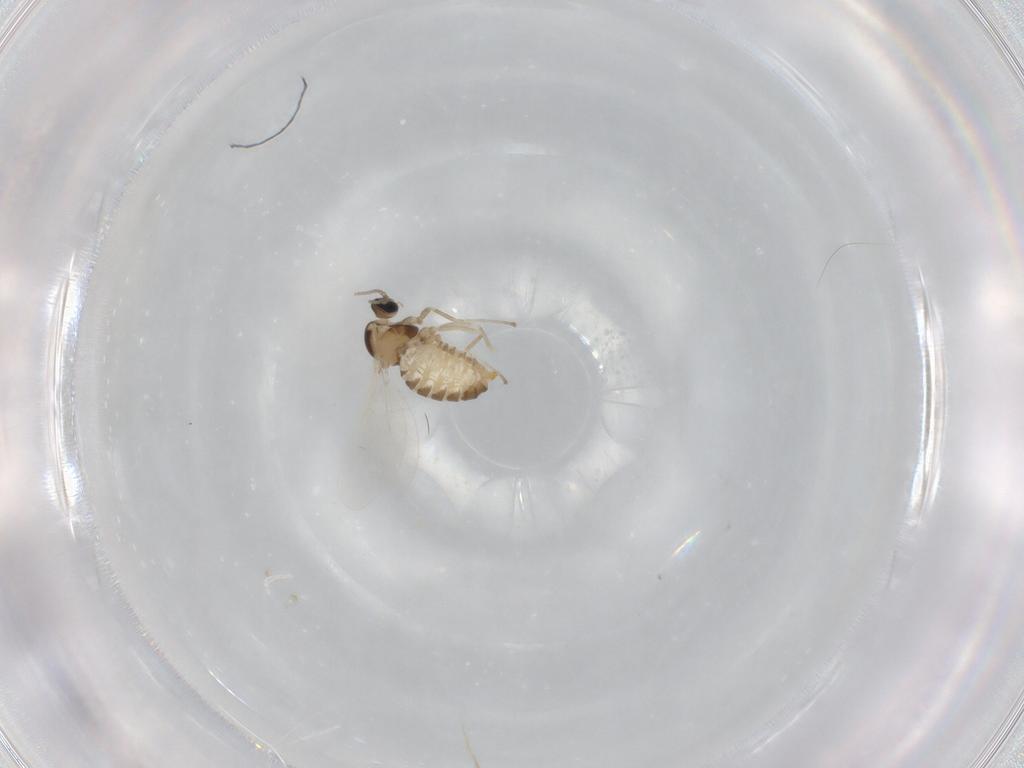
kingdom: Animalia
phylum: Arthropoda
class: Insecta
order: Diptera
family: Cecidomyiidae
